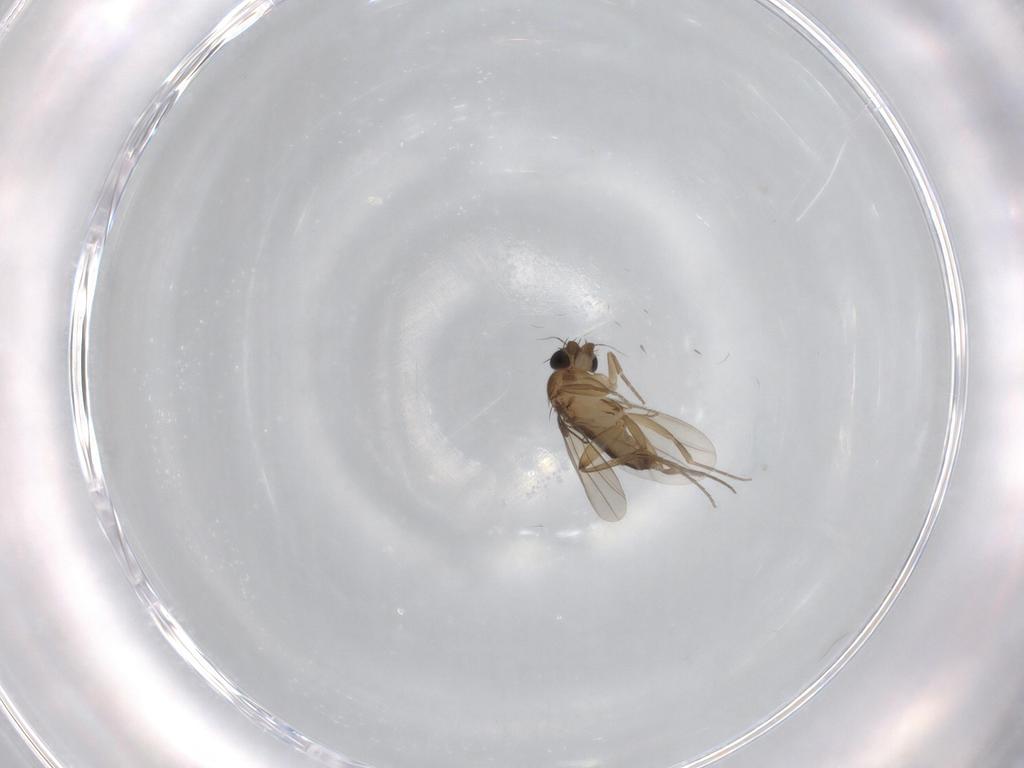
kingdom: Animalia
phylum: Arthropoda
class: Insecta
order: Diptera
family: Phoridae
